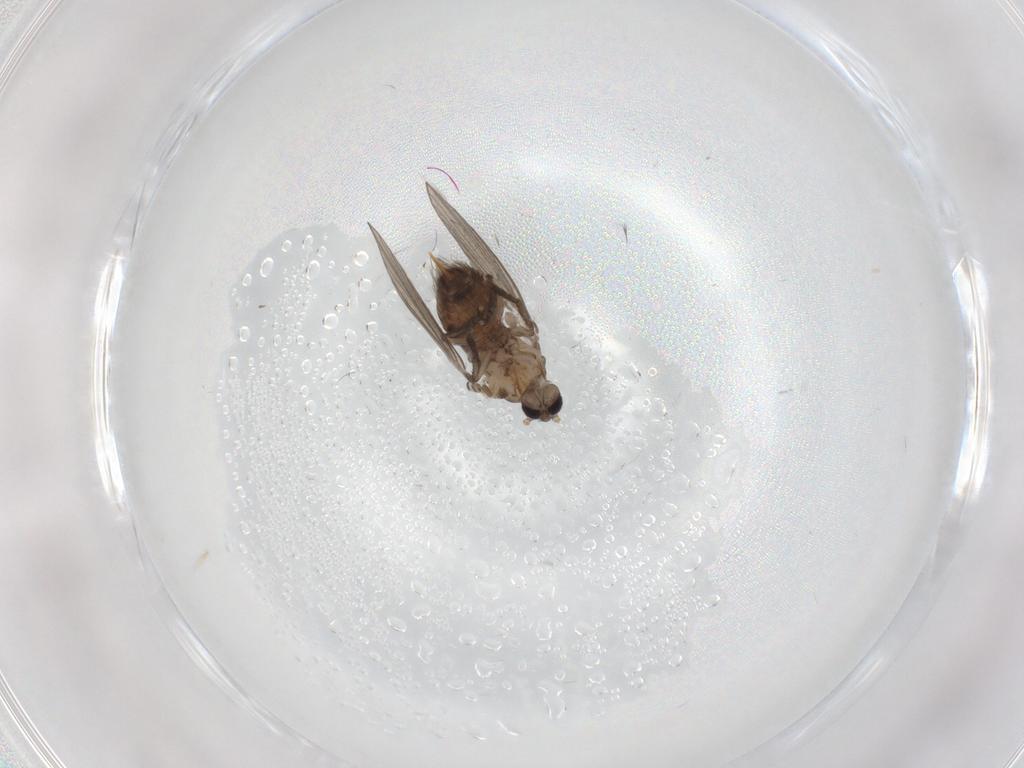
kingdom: Animalia
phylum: Arthropoda
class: Insecta
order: Diptera
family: Psychodidae
